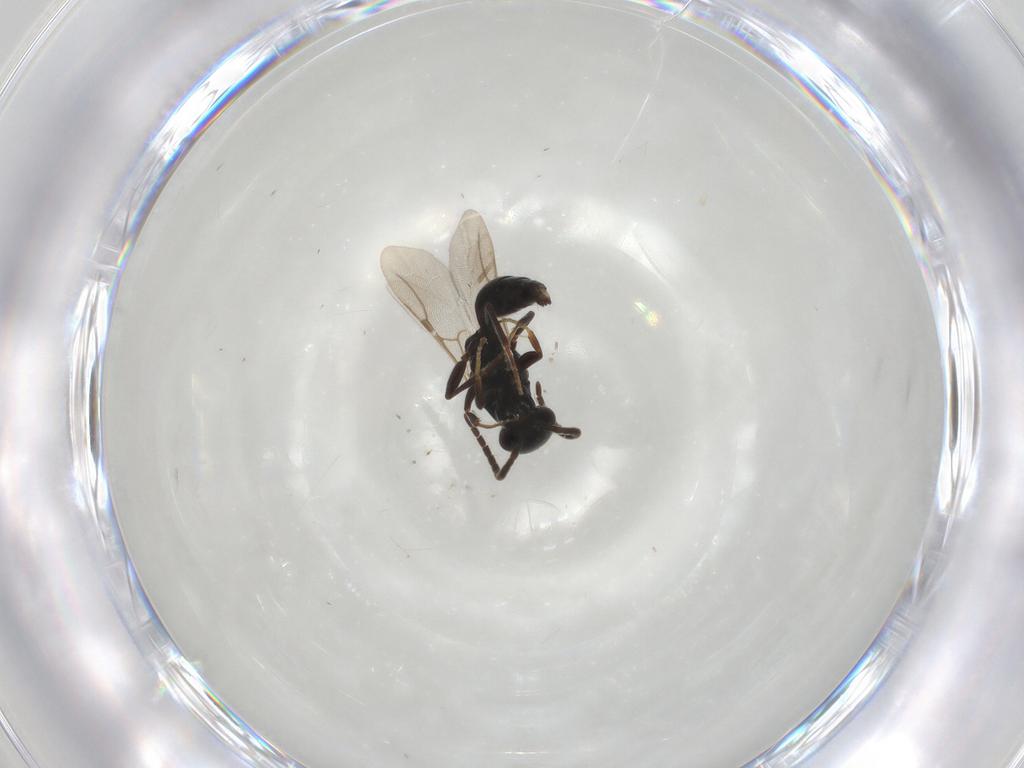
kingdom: Animalia
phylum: Arthropoda
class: Insecta
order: Hymenoptera
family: Bethylidae
